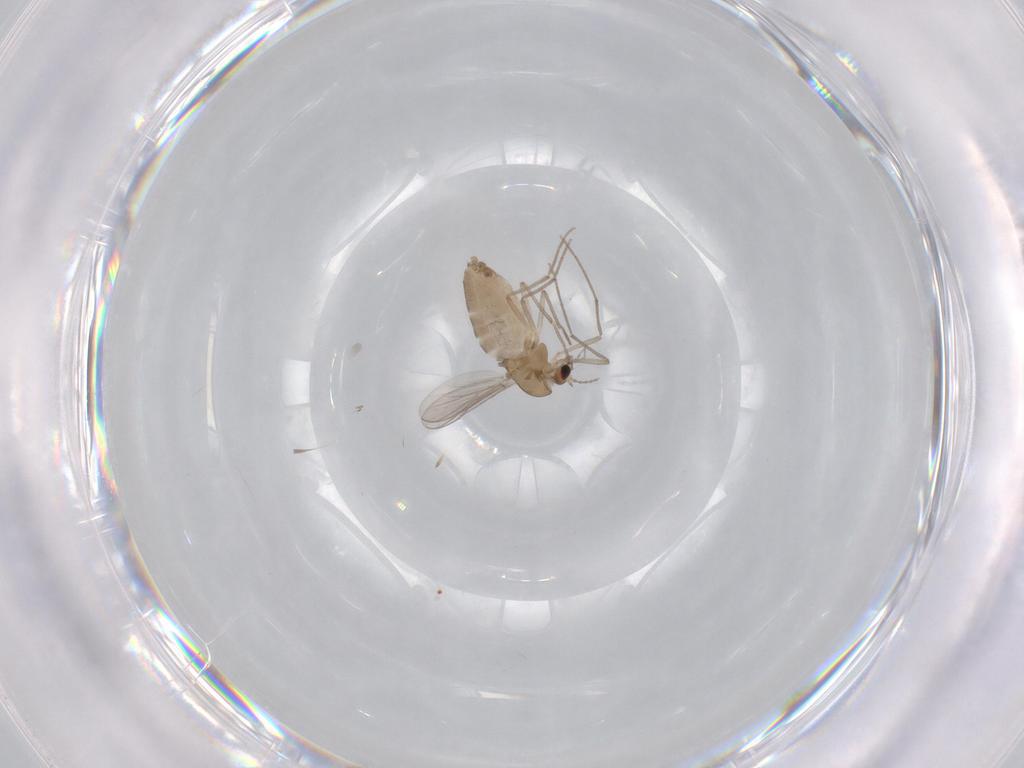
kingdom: Animalia
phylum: Arthropoda
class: Insecta
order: Diptera
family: Chironomidae
